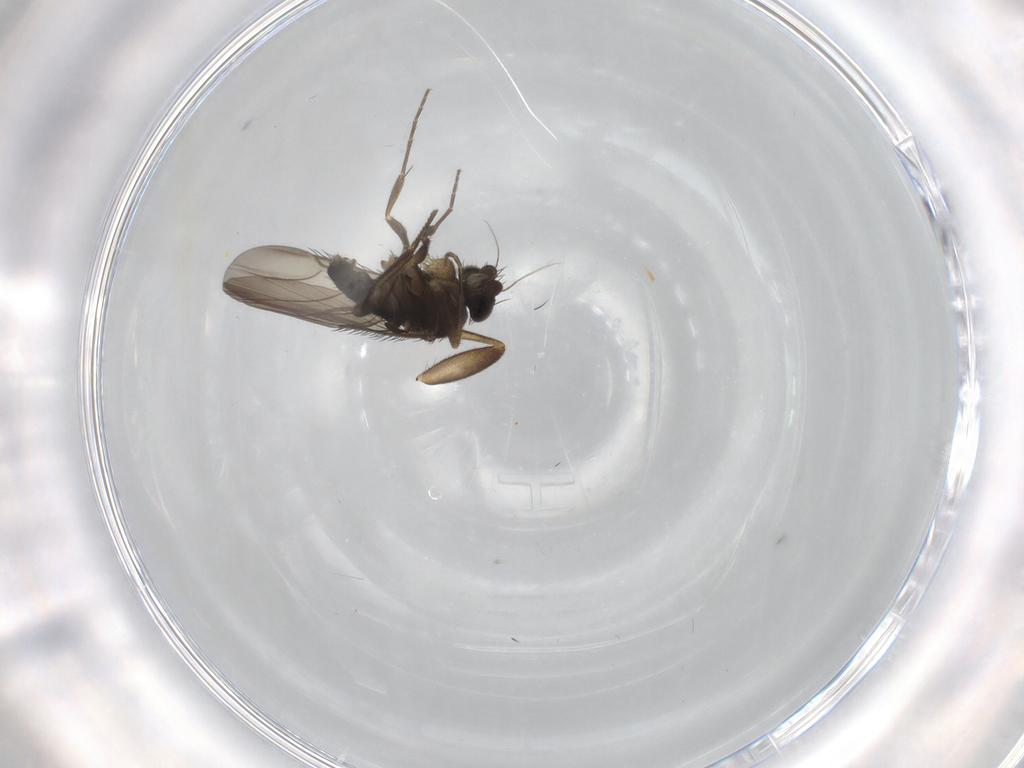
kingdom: Animalia
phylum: Arthropoda
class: Insecta
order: Diptera
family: Phoridae
